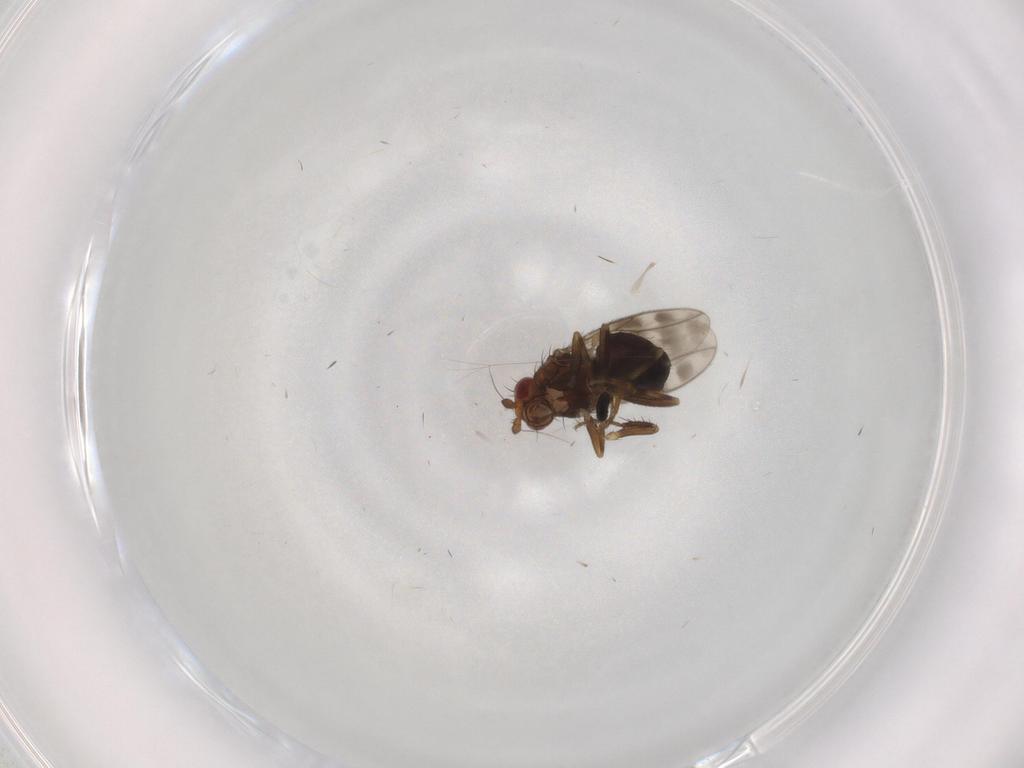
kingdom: Animalia
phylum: Arthropoda
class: Insecta
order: Diptera
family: Sphaeroceridae
